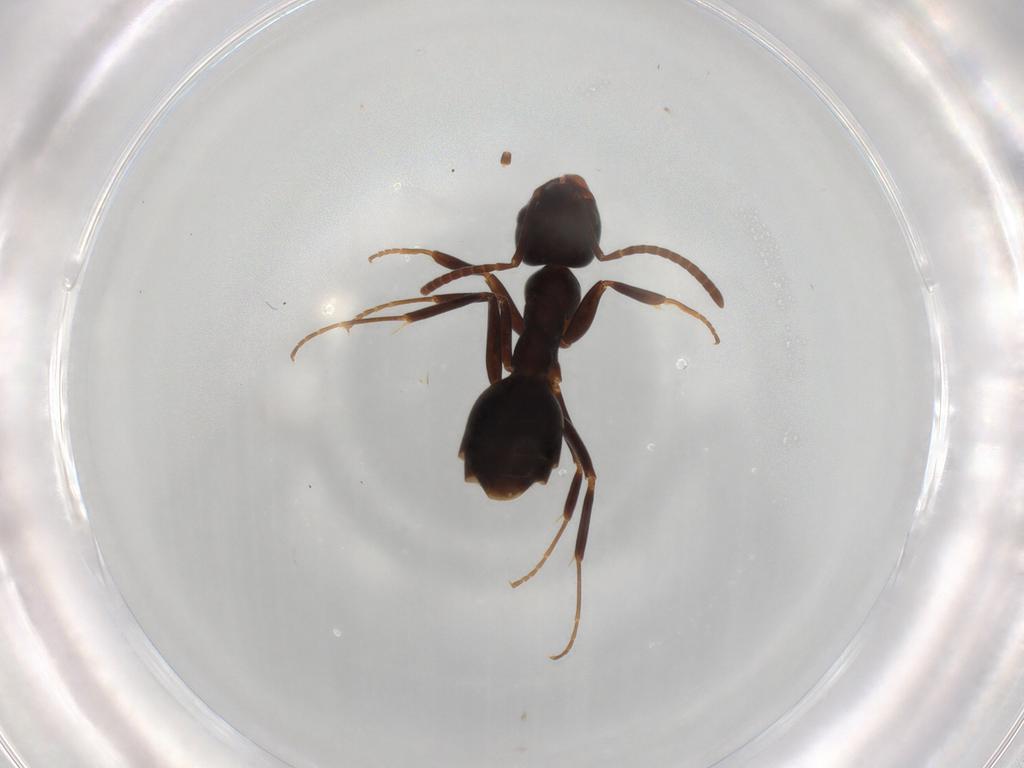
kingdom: Animalia
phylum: Arthropoda
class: Insecta
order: Hymenoptera
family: Formicidae
